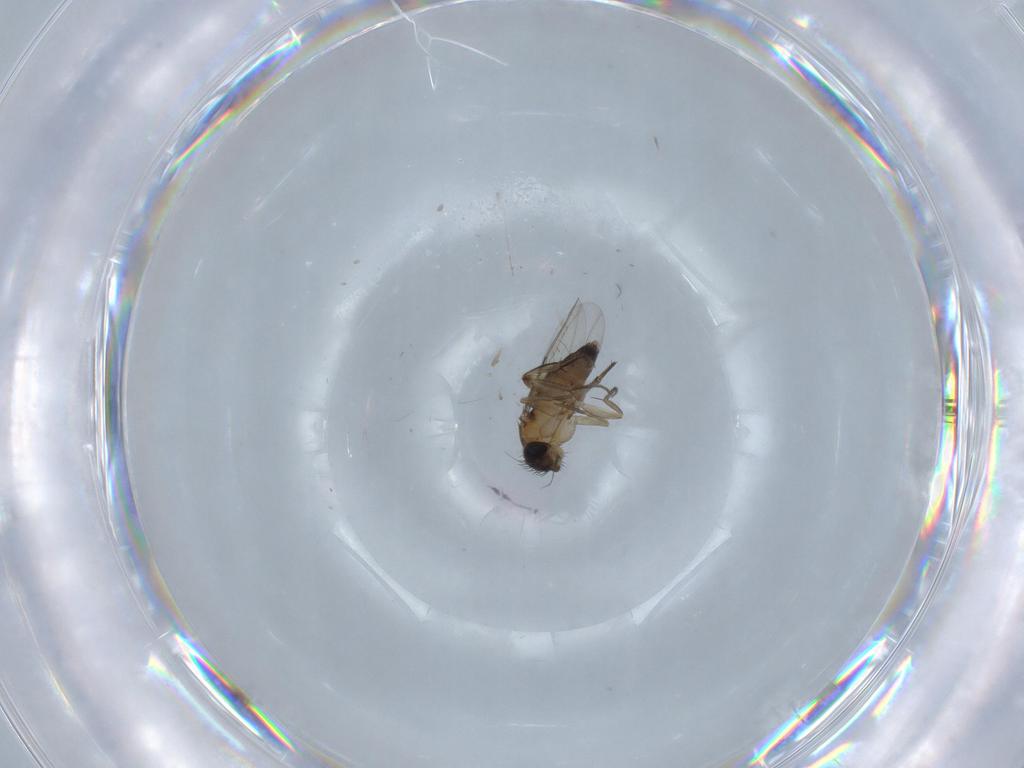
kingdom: Animalia
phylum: Arthropoda
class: Insecta
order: Diptera
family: Phoridae
